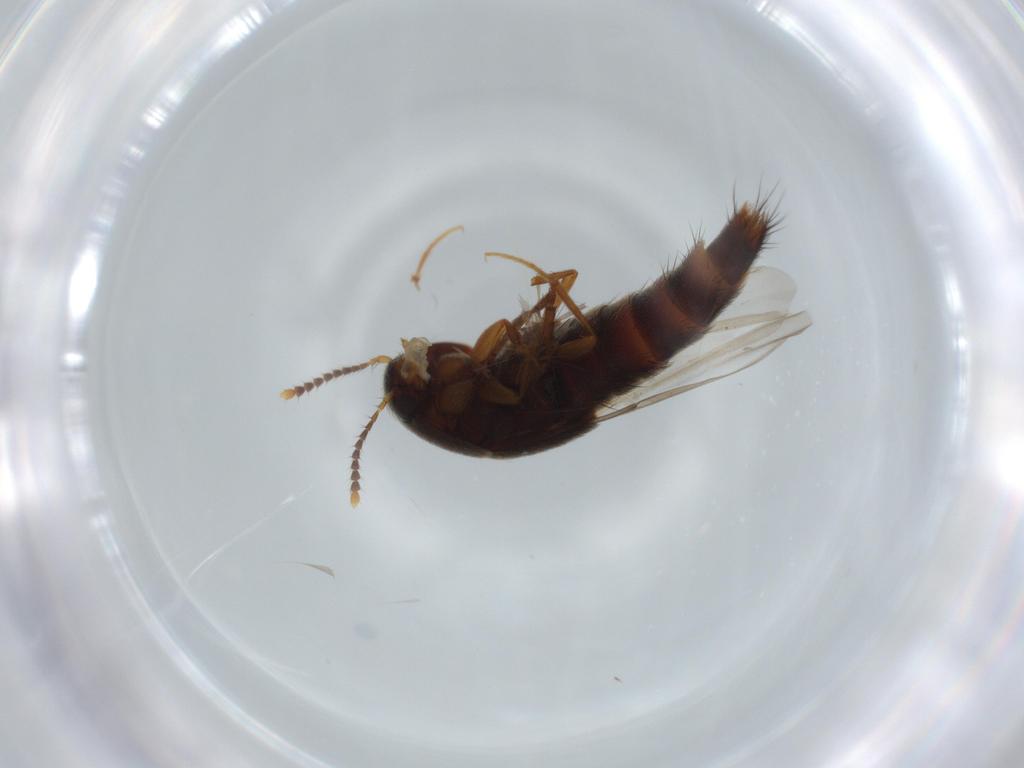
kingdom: Animalia
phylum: Arthropoda
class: Insecta
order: Coleoptera
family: Staphylinidae
